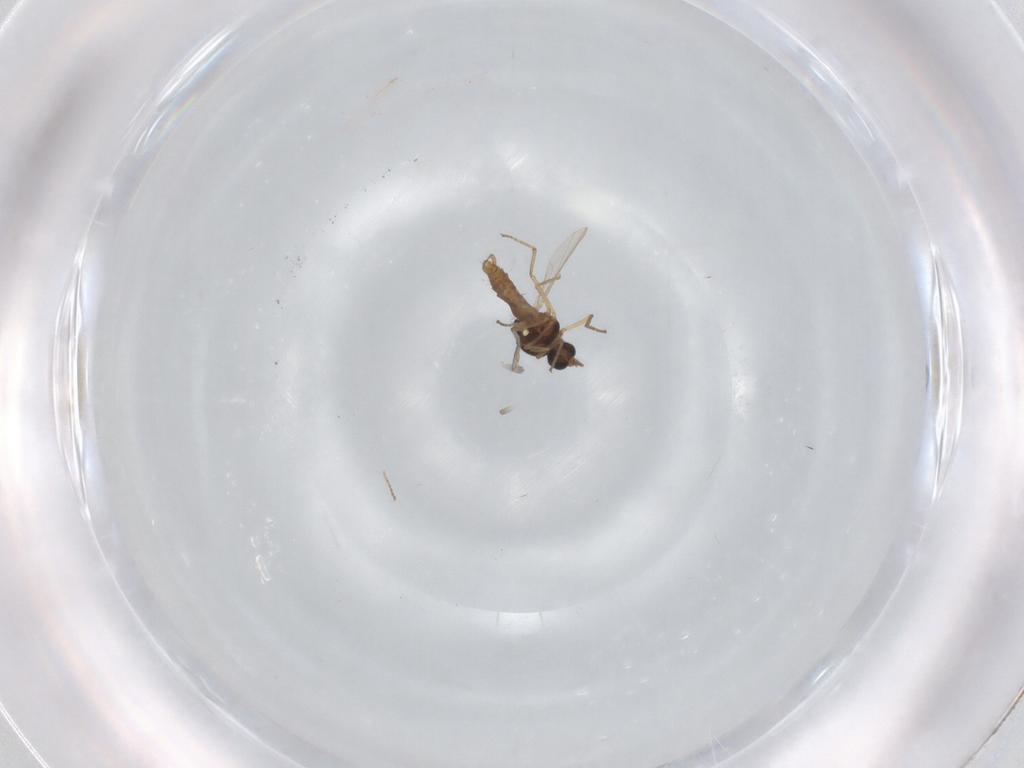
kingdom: Animalia
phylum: Arthropoda
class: Insecta
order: Diptera
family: Ceratopogonidae
